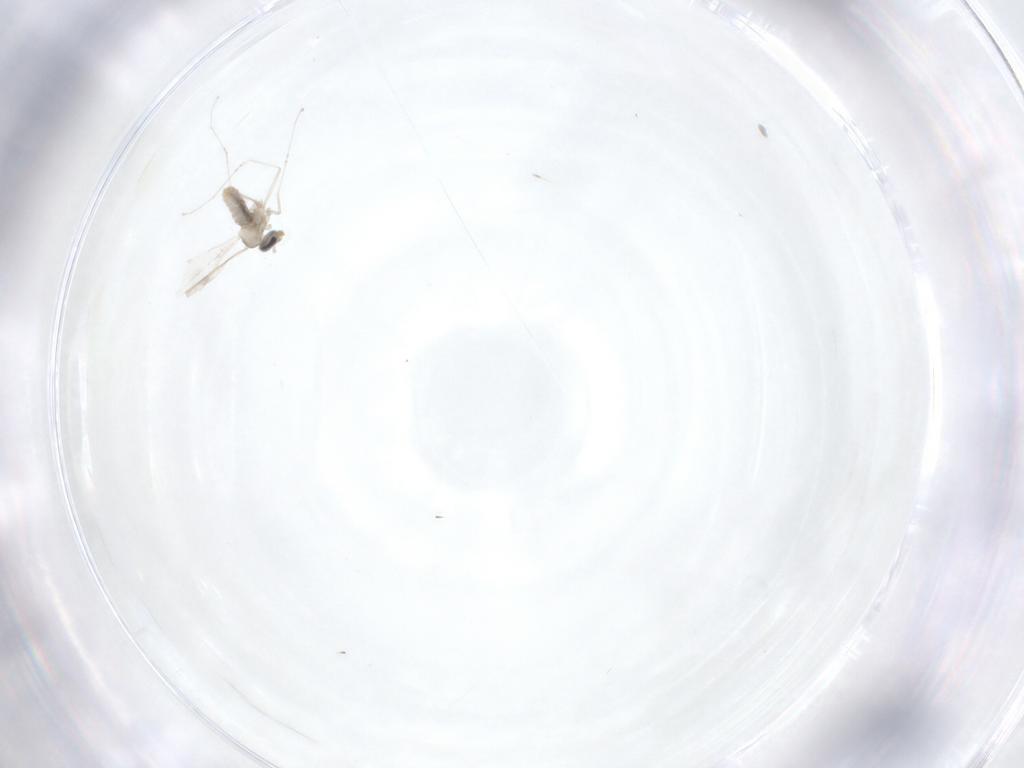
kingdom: Animalia
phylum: Arthropoda
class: Insecta
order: Diptera
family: Cecidomyiidae
